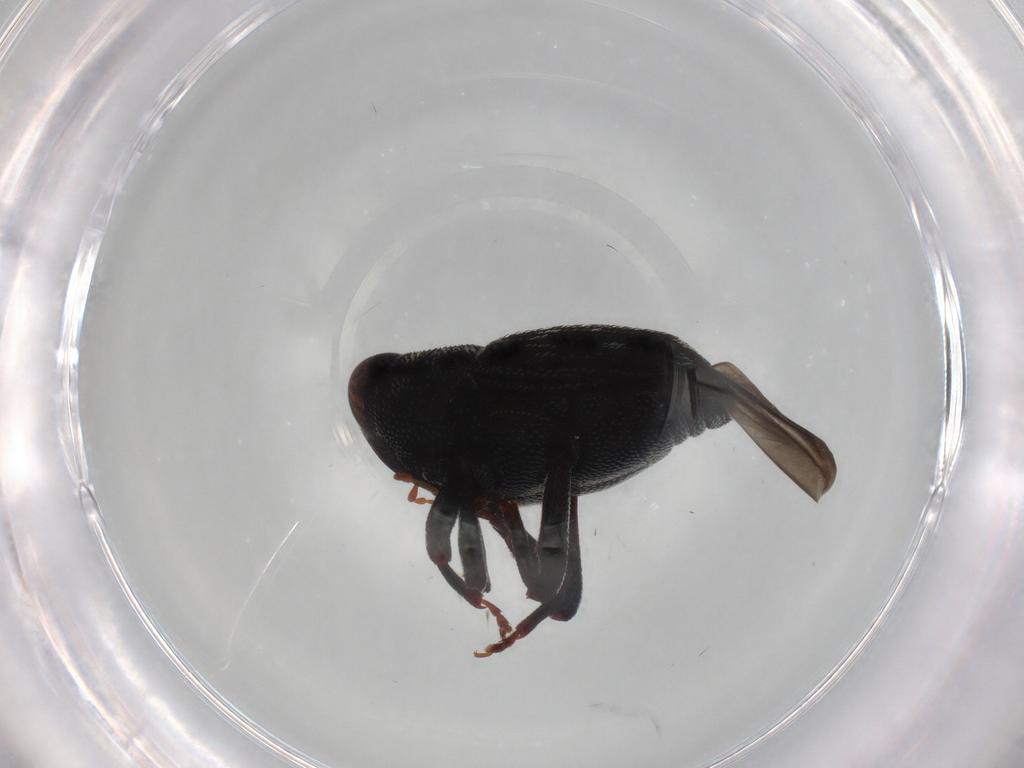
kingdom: Animalia
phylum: Arthropoda
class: Insecta
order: Coleoptera
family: Curculionidae
